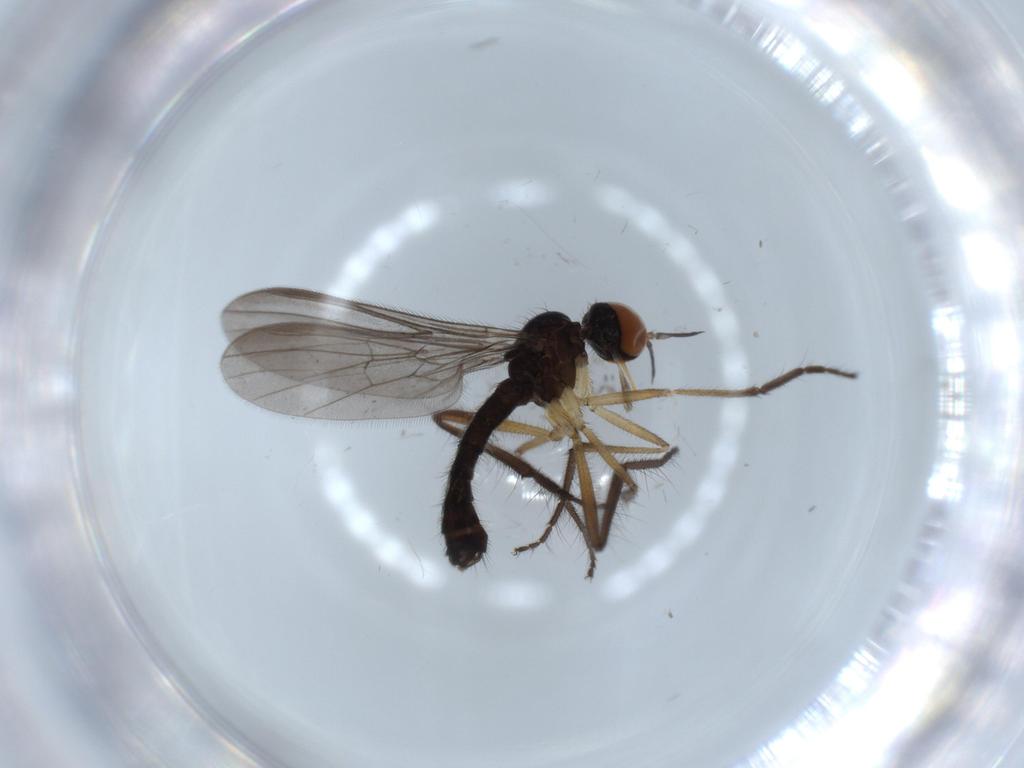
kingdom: Animalia
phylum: Arthropoda
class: Insecta
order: Diptera
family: Empididae
